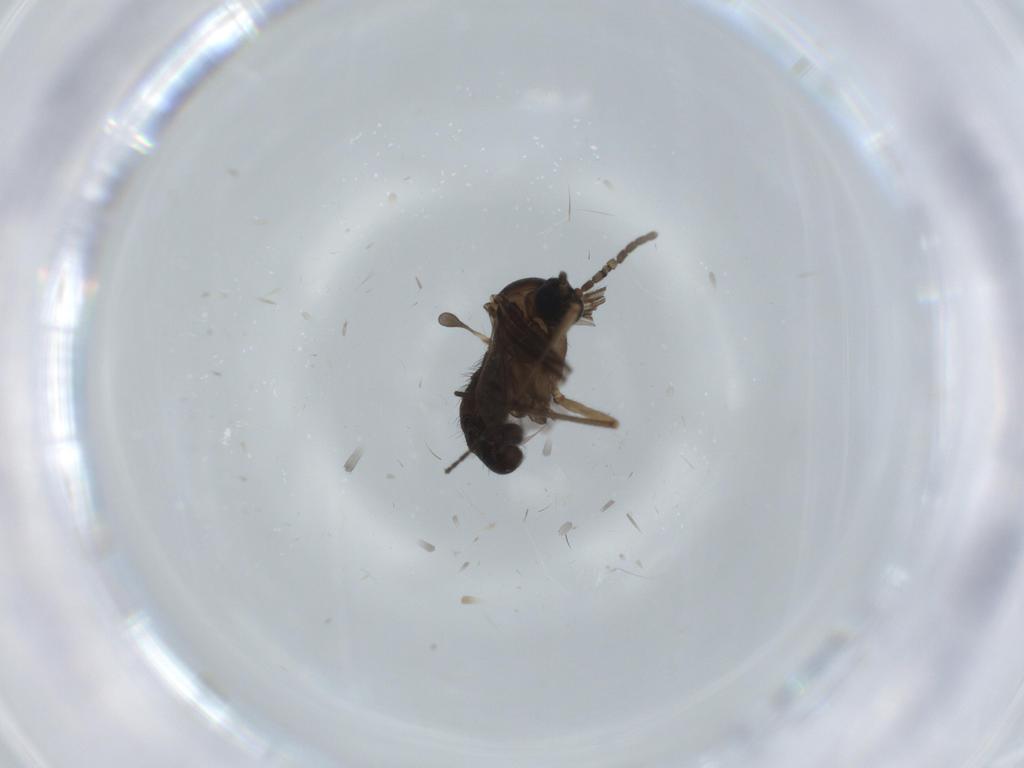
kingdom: Animalia
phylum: Arthropoda
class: Insecta
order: Diptera
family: Sciaridae
